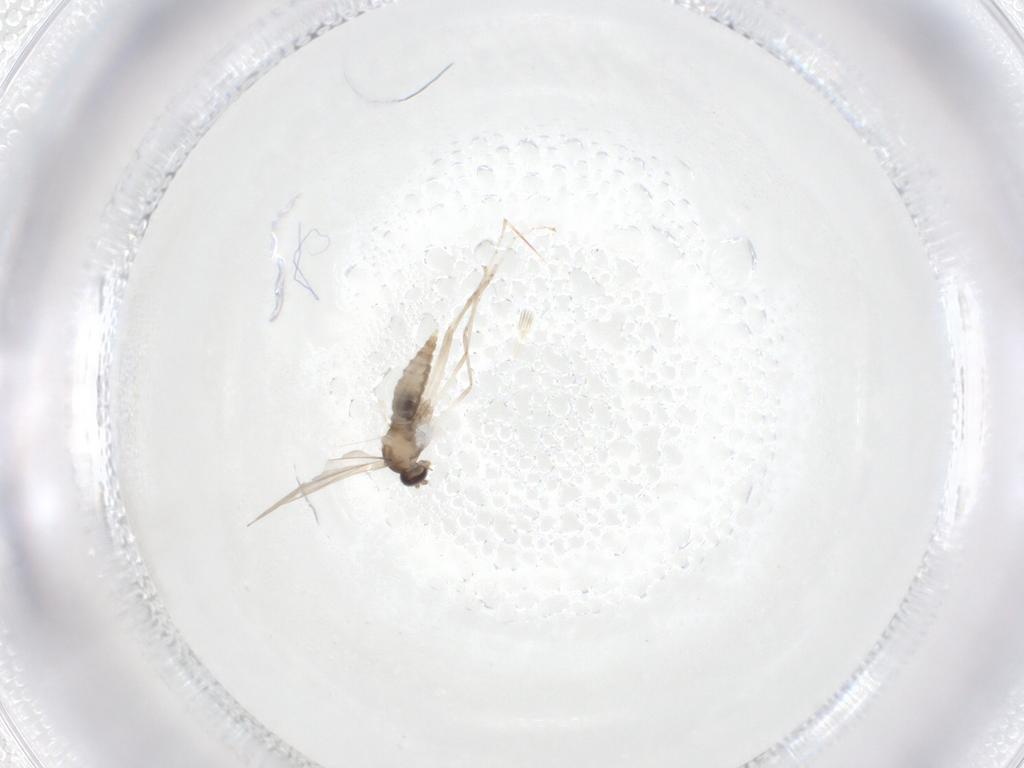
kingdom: Animalia
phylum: Arthropoda
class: Insecta
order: Diptera
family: Cecidomyiidae
